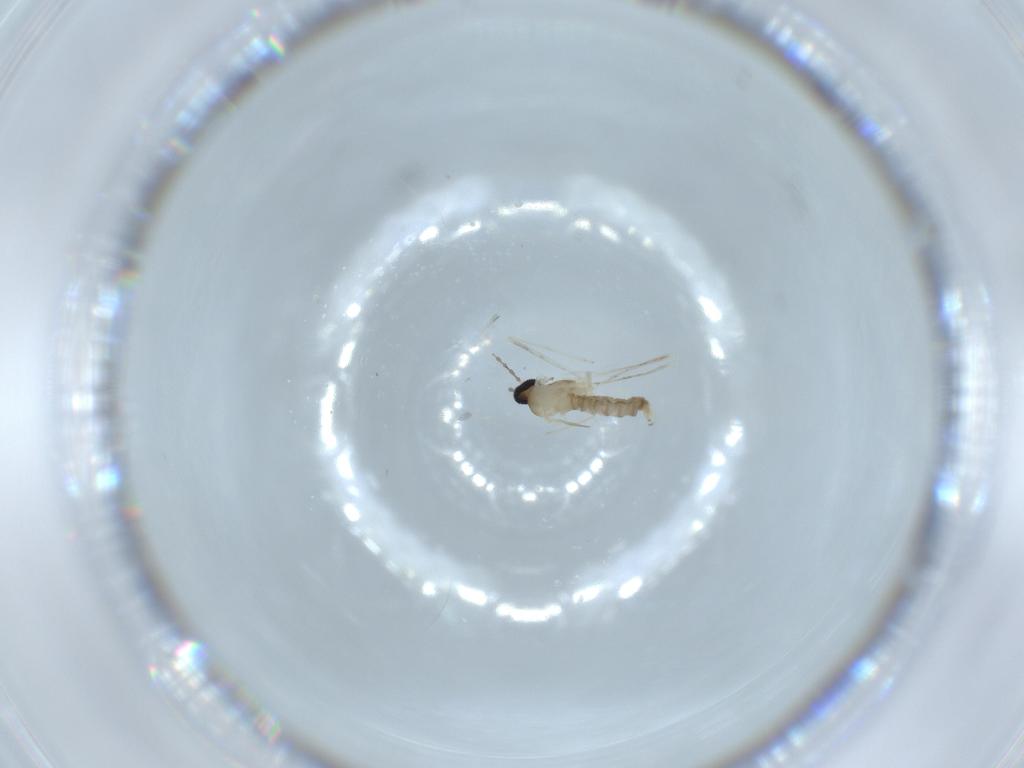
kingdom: Animalia
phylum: Arthropoda
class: Insecta
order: Diptera
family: Cecidomyiidae
